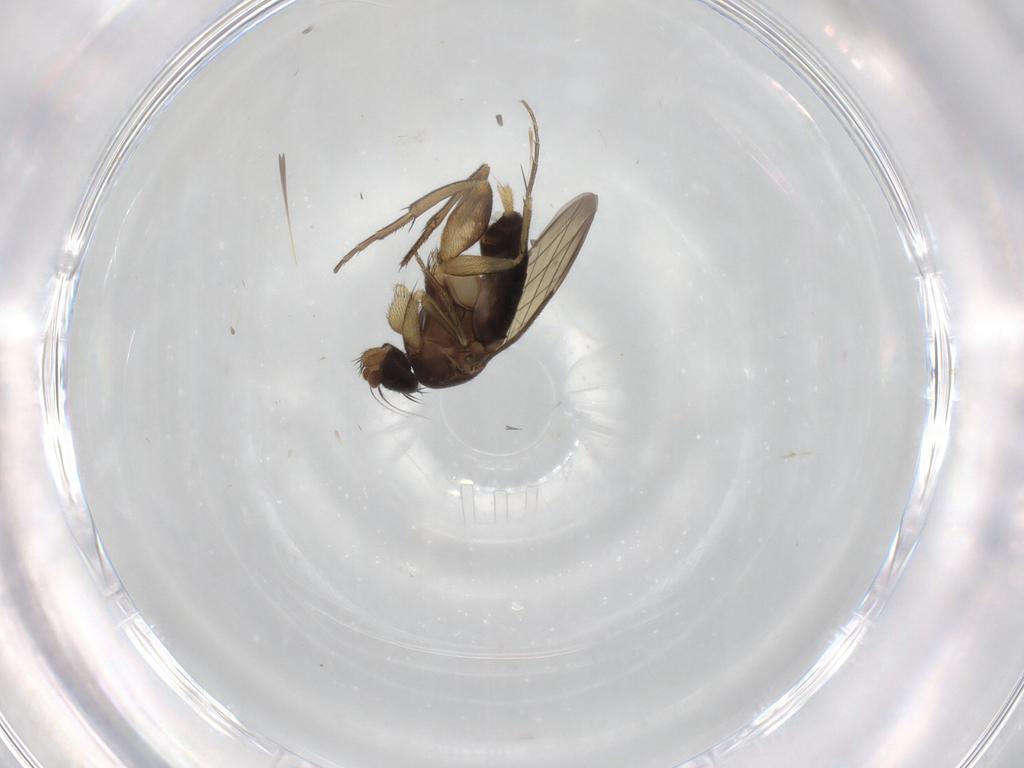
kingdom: Animalia
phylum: Arthropoda
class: Insecta
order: Diptera
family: Phoridae
